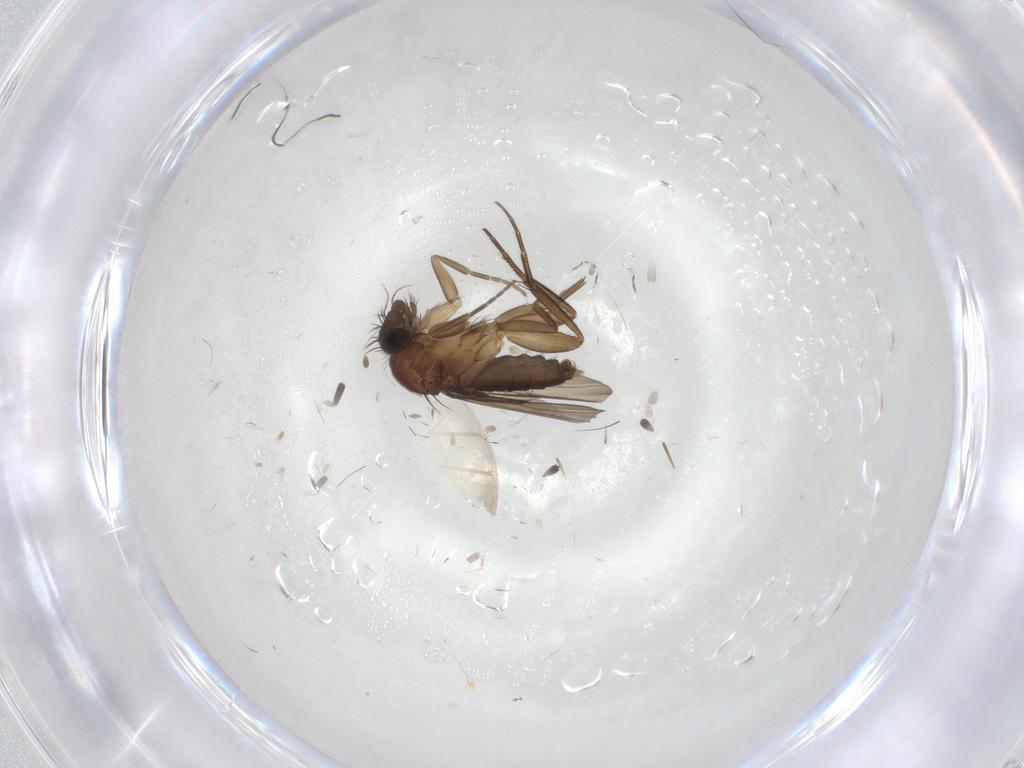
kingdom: Animalia
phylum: Arthropoda
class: Insecta
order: Diptera
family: Phoridae
